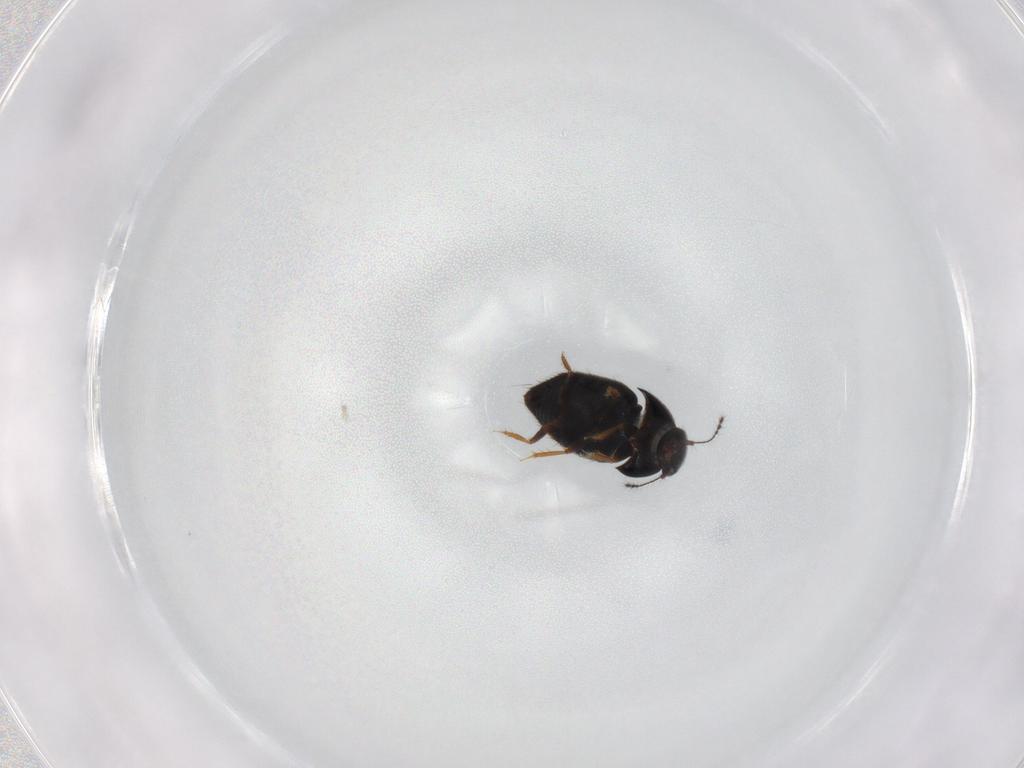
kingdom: Animalia
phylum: Arthropoda
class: Insecta
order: Coleoptera
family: Ptiliidae
